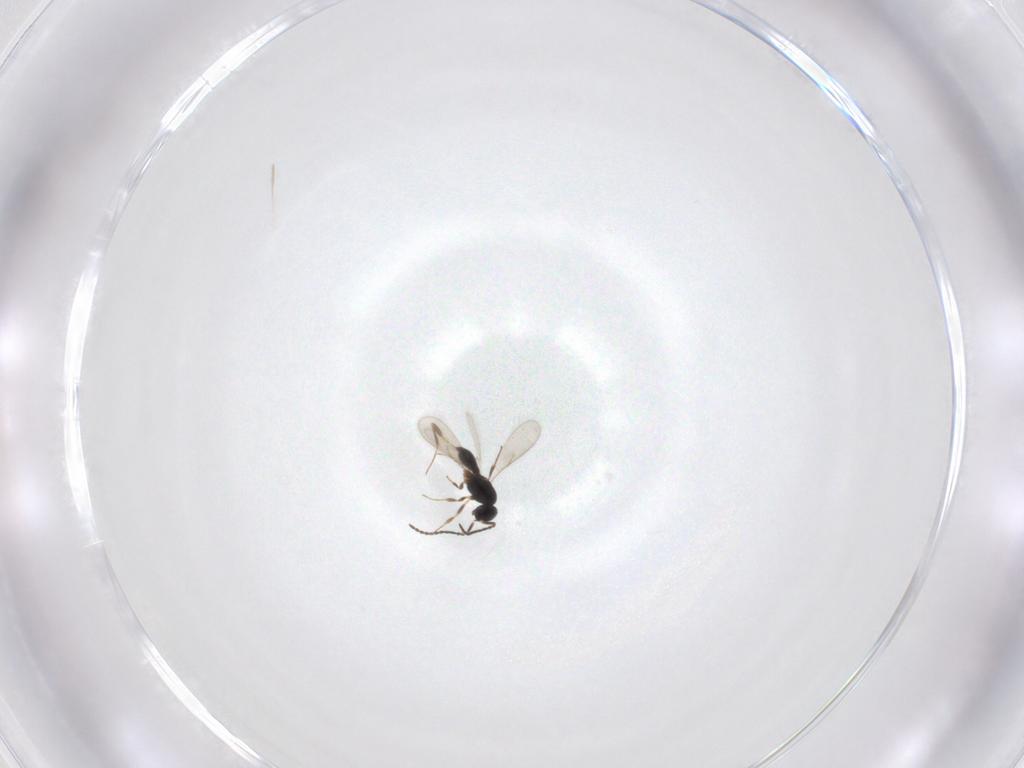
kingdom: Animalia
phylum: Arthropoda
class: Insecta
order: Hymenoptera
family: Scelionidae
